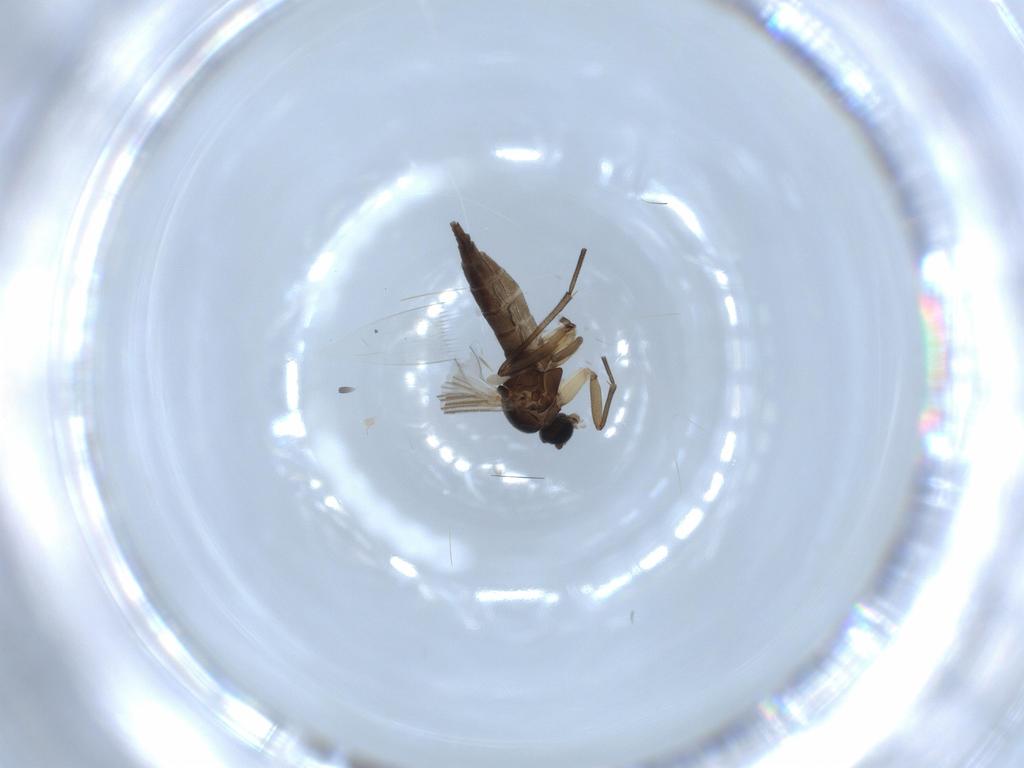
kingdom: Animalia
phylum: Arthropoda
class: Insecta
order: Diptera
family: Sciaridae
